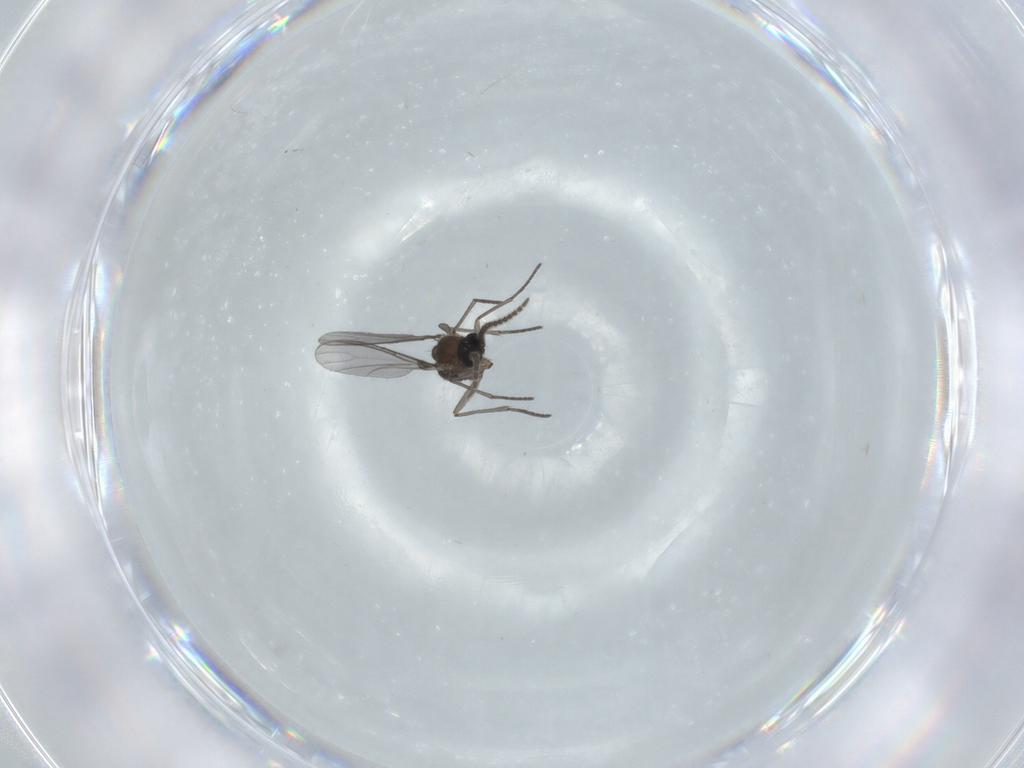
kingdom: Animalia
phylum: Arthropoda
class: Insecta
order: Diptera
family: Sciaridae
